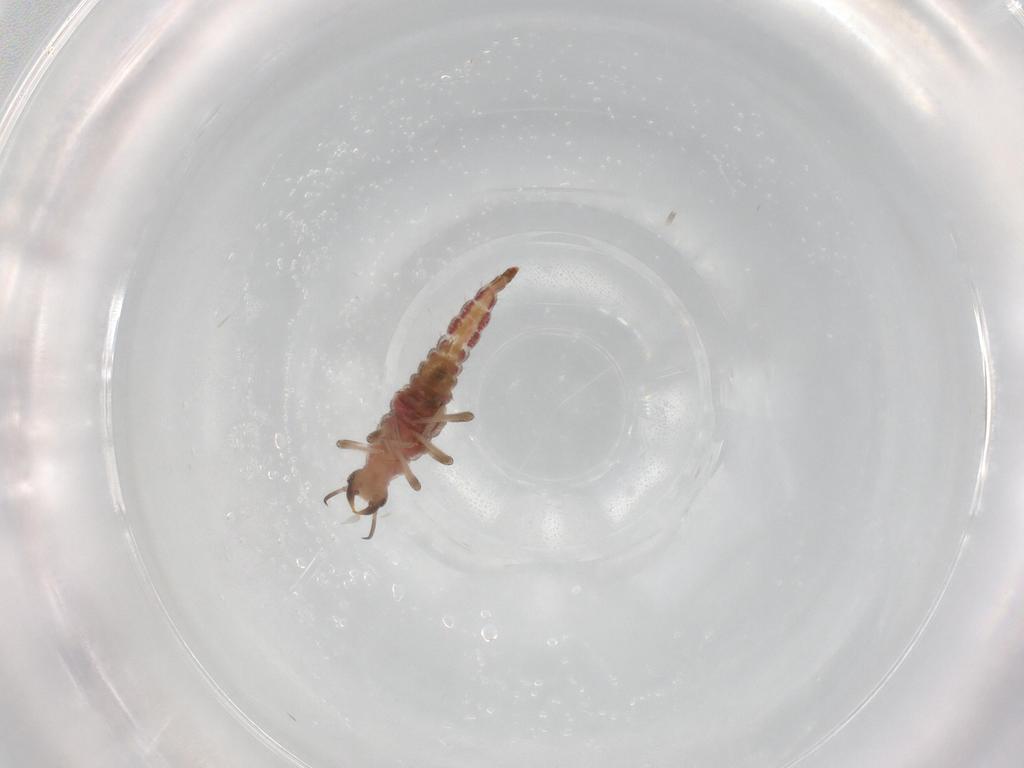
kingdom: Animalia
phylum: Arthropoda
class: Insecta
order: Neuroptera
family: Hemerobiidae
